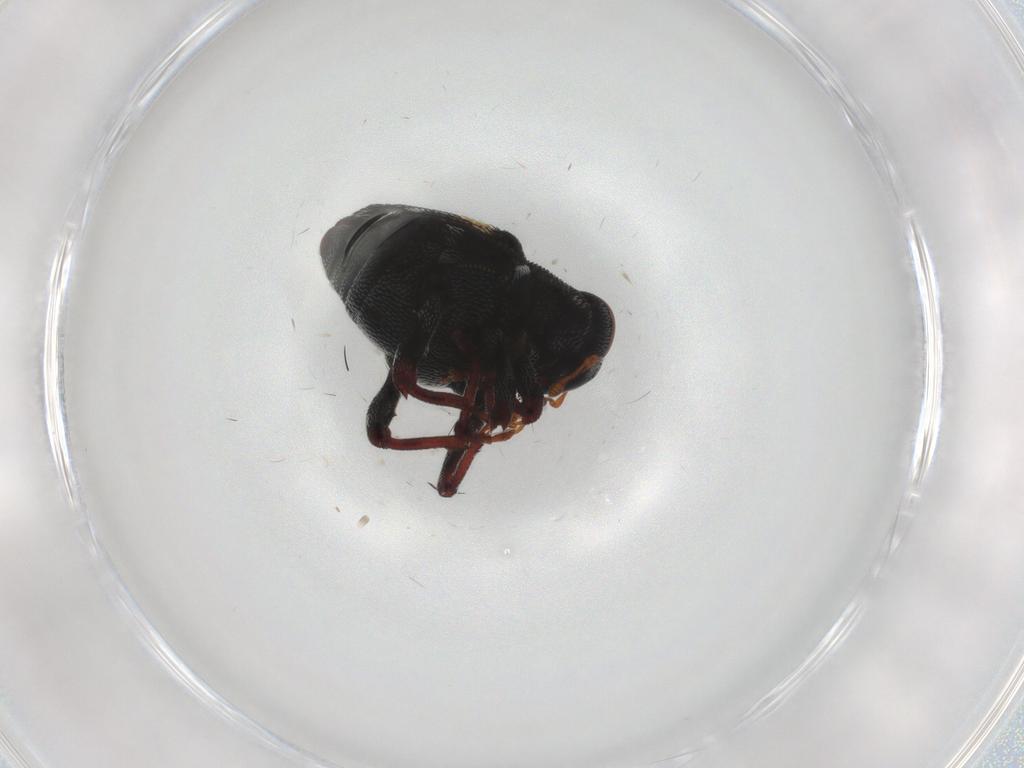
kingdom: Animalia
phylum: Arthropoda
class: Insecta
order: Coleoptera
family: Curculionidae
